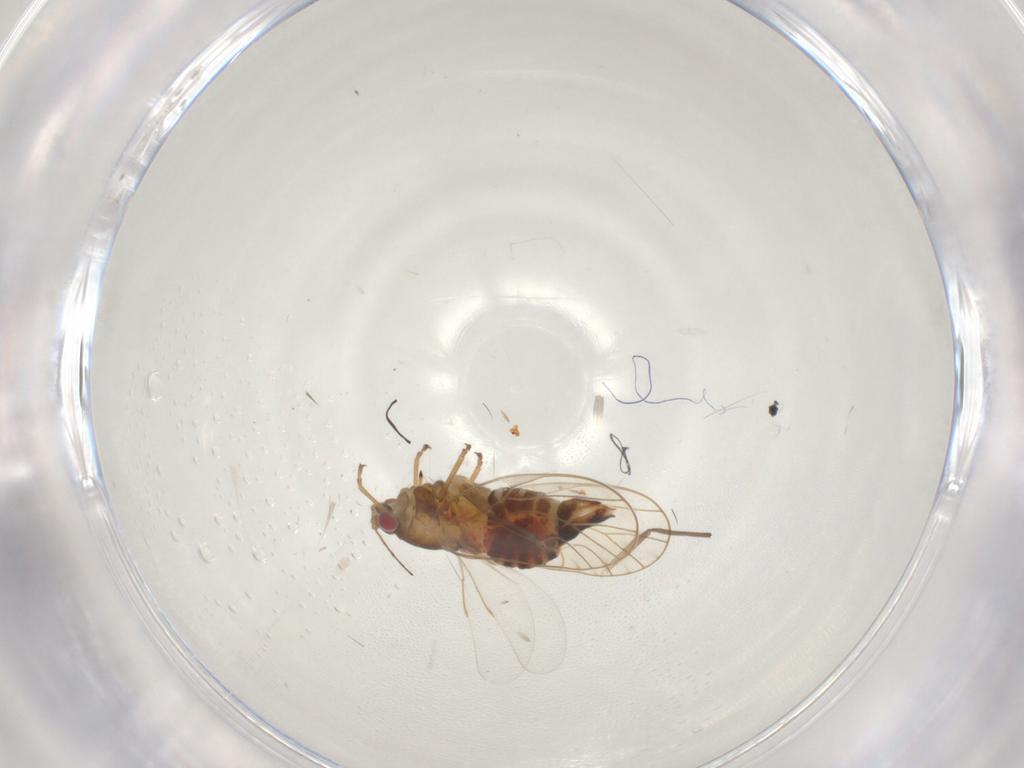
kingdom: Animalia
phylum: Arthropoda
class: Insecta
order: Diptera
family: Chironomidae
